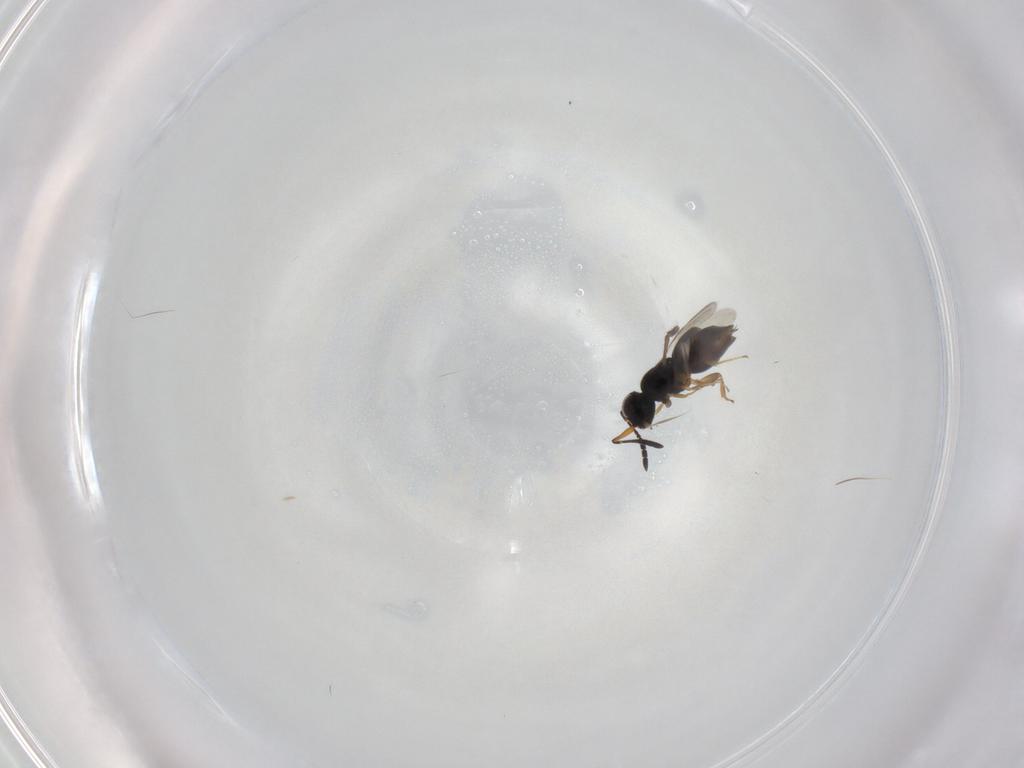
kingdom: Animalia
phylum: Arthropoda
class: Insecta
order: Hymenoptera
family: Braconidae
